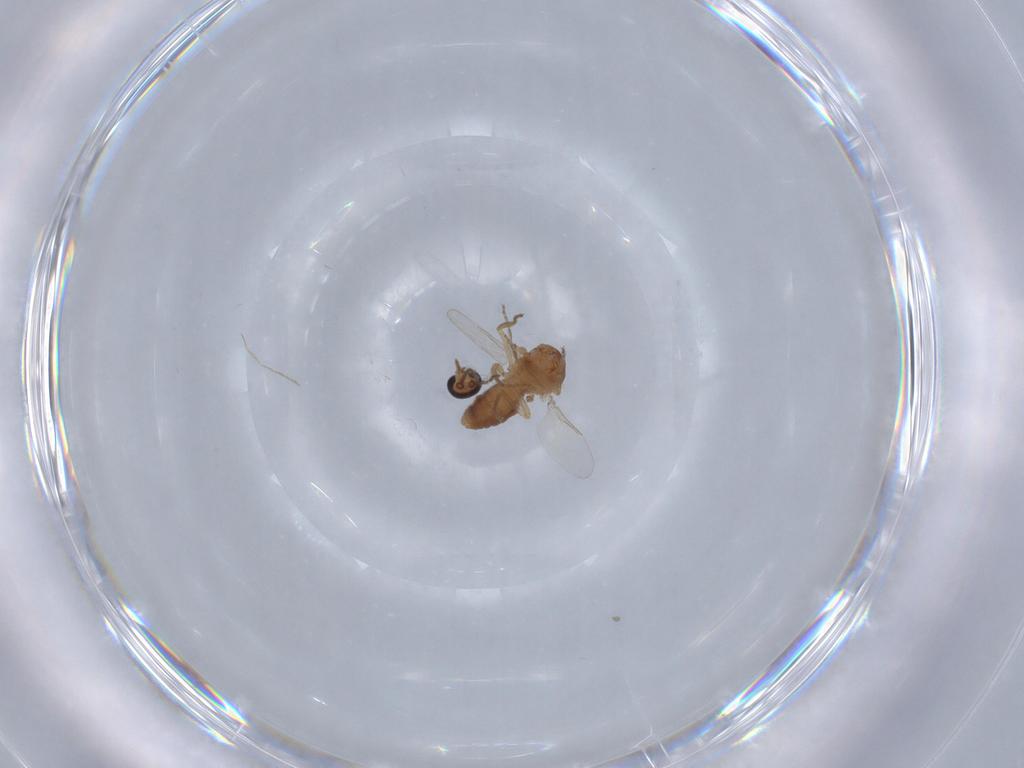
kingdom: Animalia
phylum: Arthropoda
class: Insecta
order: Diptera
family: Ceratopogonidae
